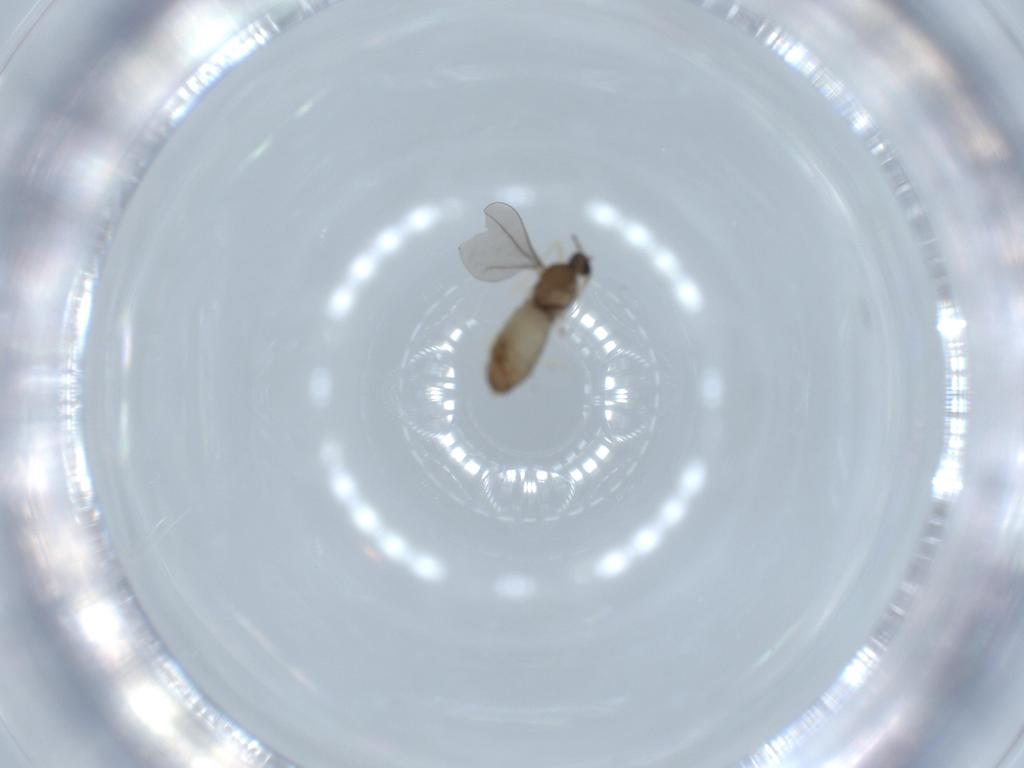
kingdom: Animalia
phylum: Arthropoda
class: Insecta
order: Diptera
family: Cecidomyiidae
